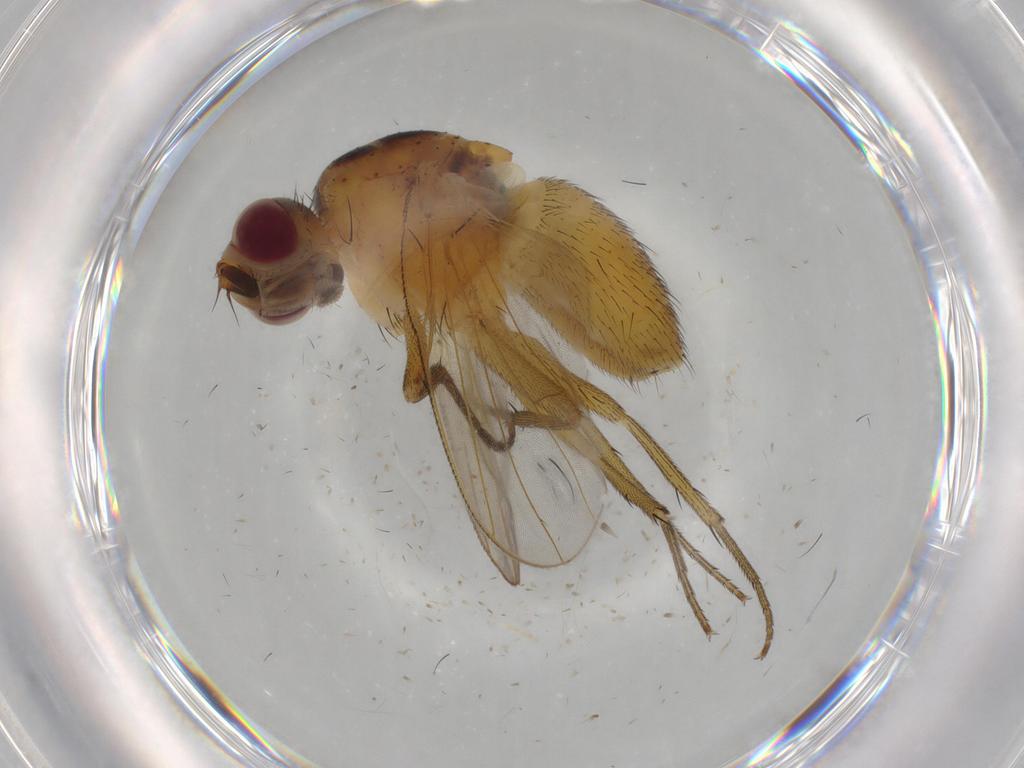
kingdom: Animalia
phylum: Arthropoda
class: Insecta
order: Diptera
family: Muscidae
